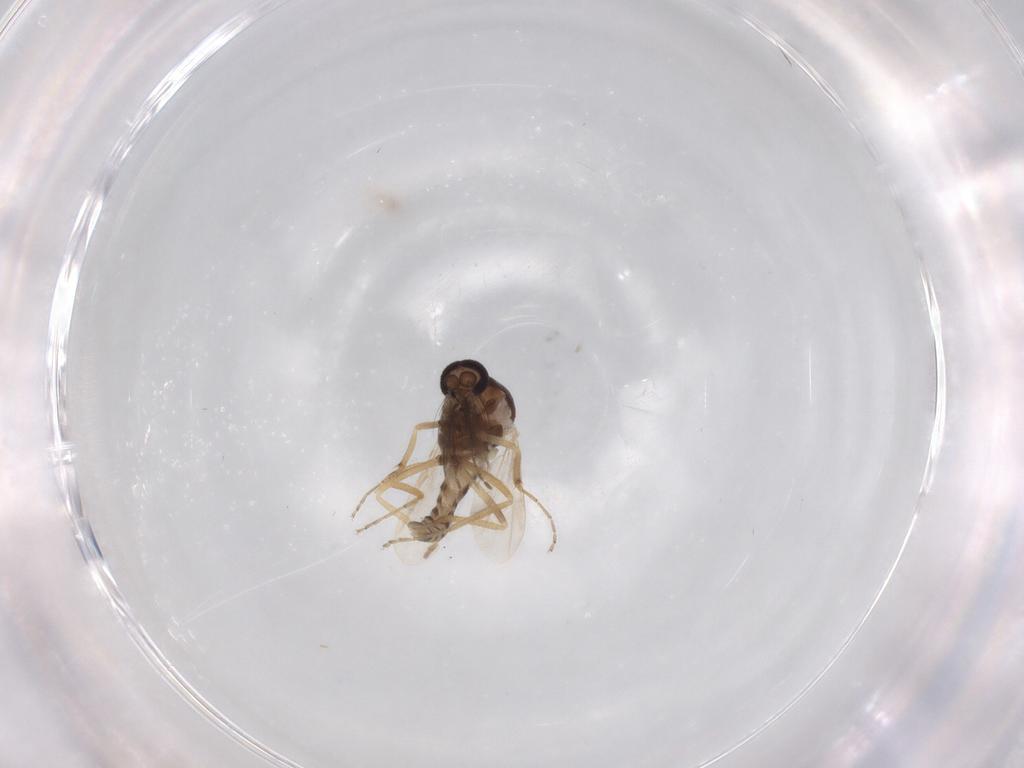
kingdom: Animalia
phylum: Arthropoda
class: Insecta
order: Diptera
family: Ceratopogonidae
